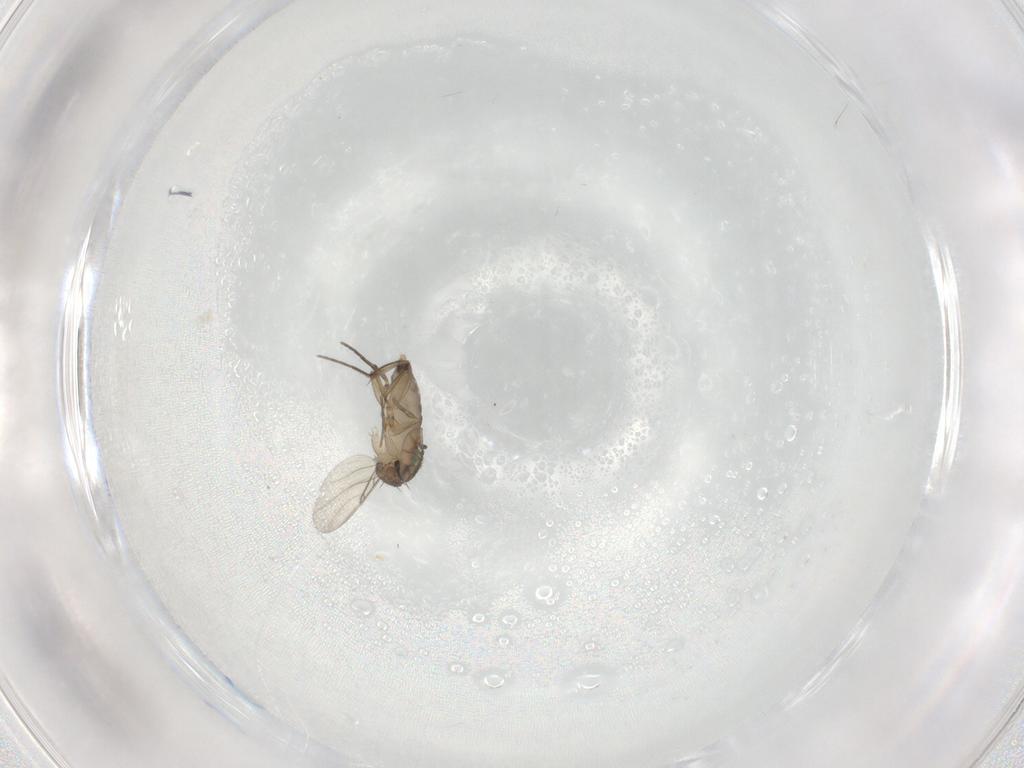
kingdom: Animalia
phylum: Arthropoda
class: Insecta
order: Diptera
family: Phoridae
